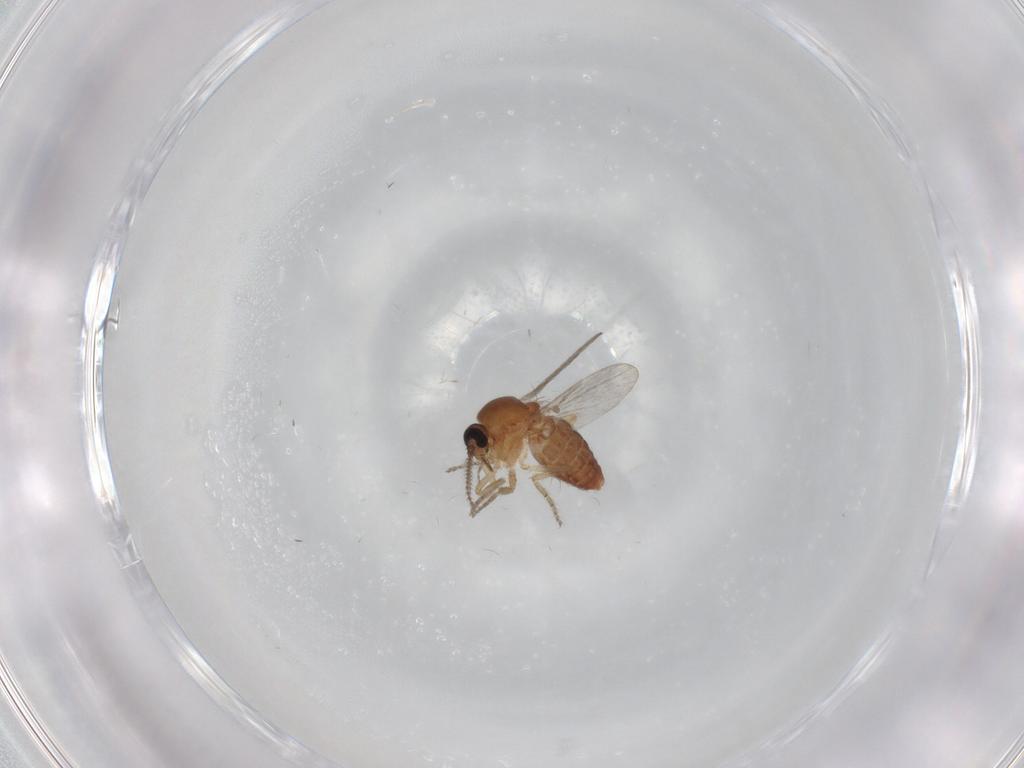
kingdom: Animalia
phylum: Arthropoda
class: Insecta
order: Diptera
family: Ceratopogonidae
